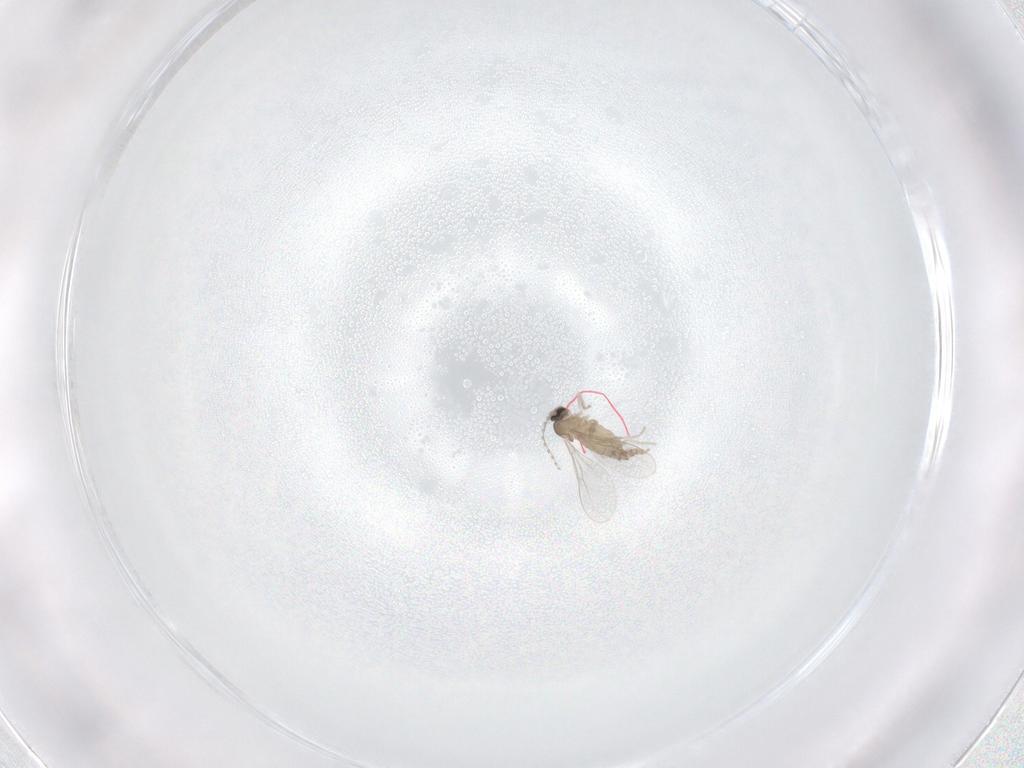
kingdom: Animalia
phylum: Arthropoda
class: Insecta
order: Diptera
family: Cecidomyiidae
